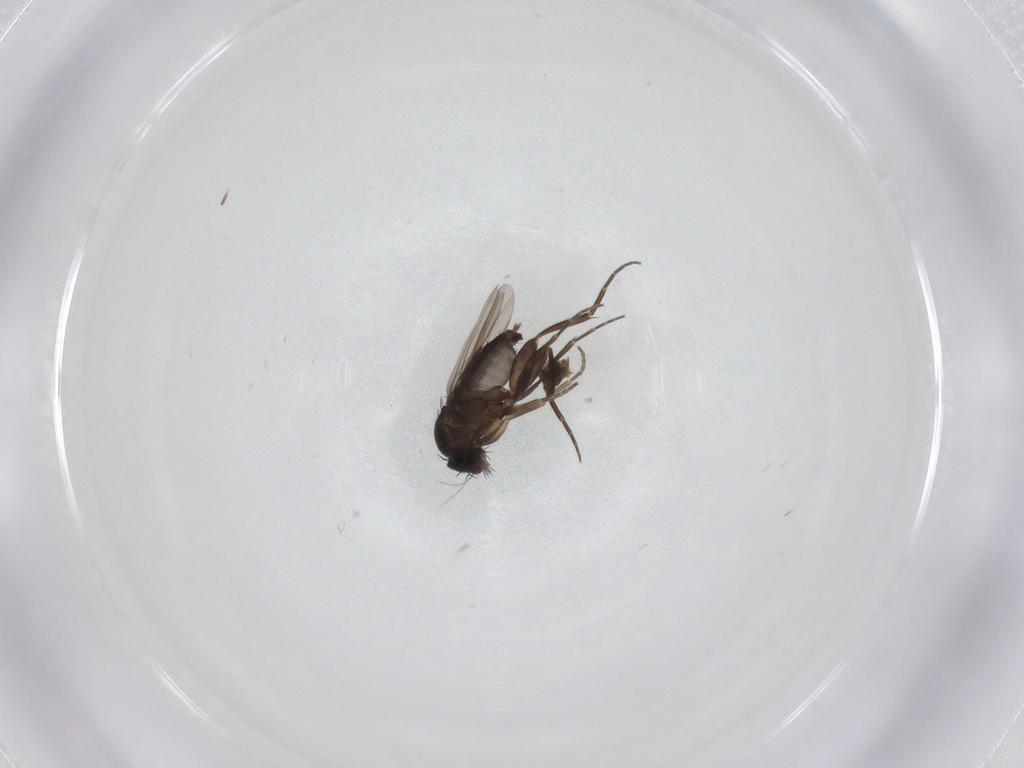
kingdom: Animalia
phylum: Arthropoda
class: Insecta
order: Diptera
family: Phoridae
